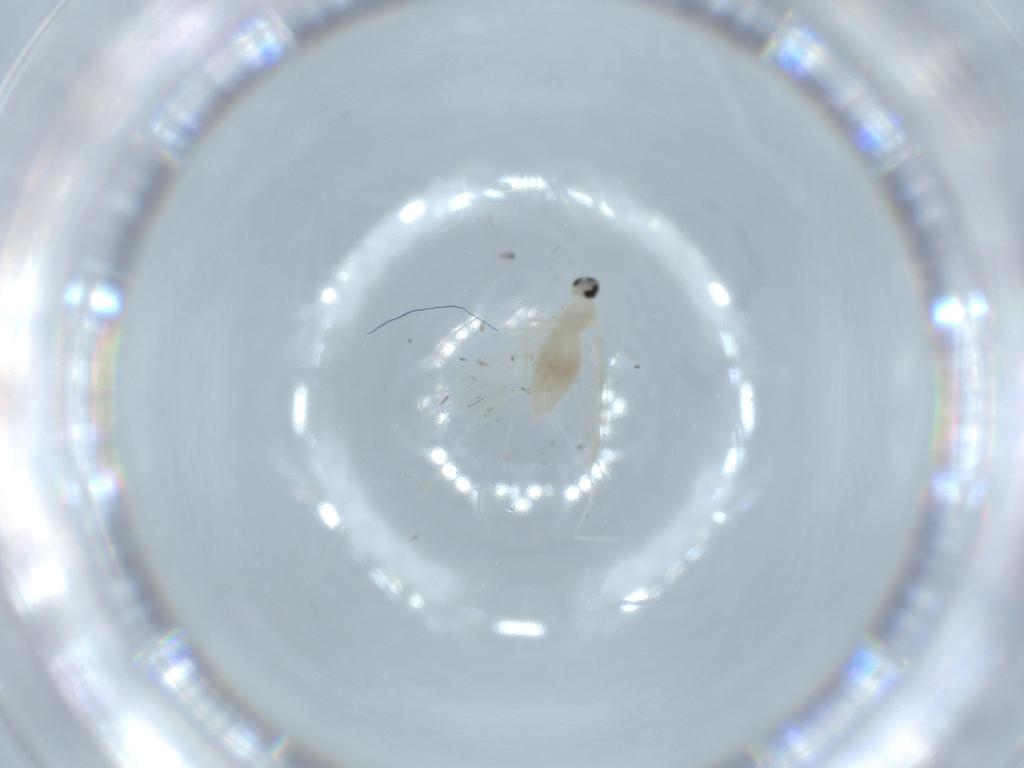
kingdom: Animalia
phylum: Arthropoda
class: Insecta
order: Diptera
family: Cecidomyiidae
